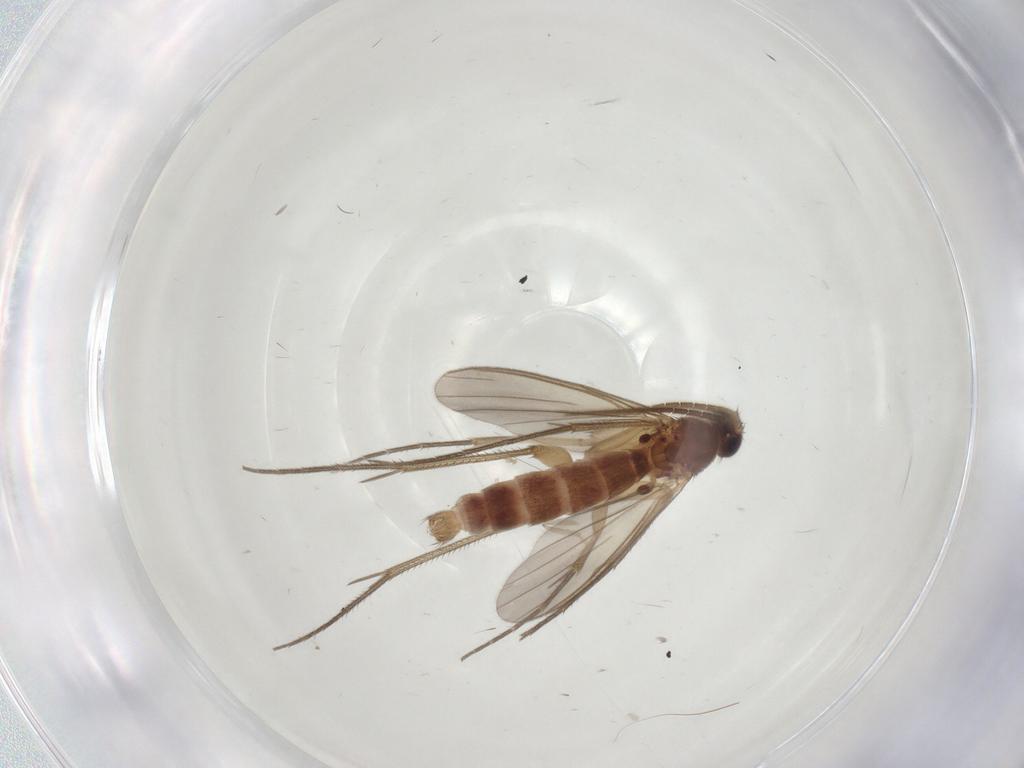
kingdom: Animalia
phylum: Arthropoda
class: Insecta
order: Diptera
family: Mycetophilidae
